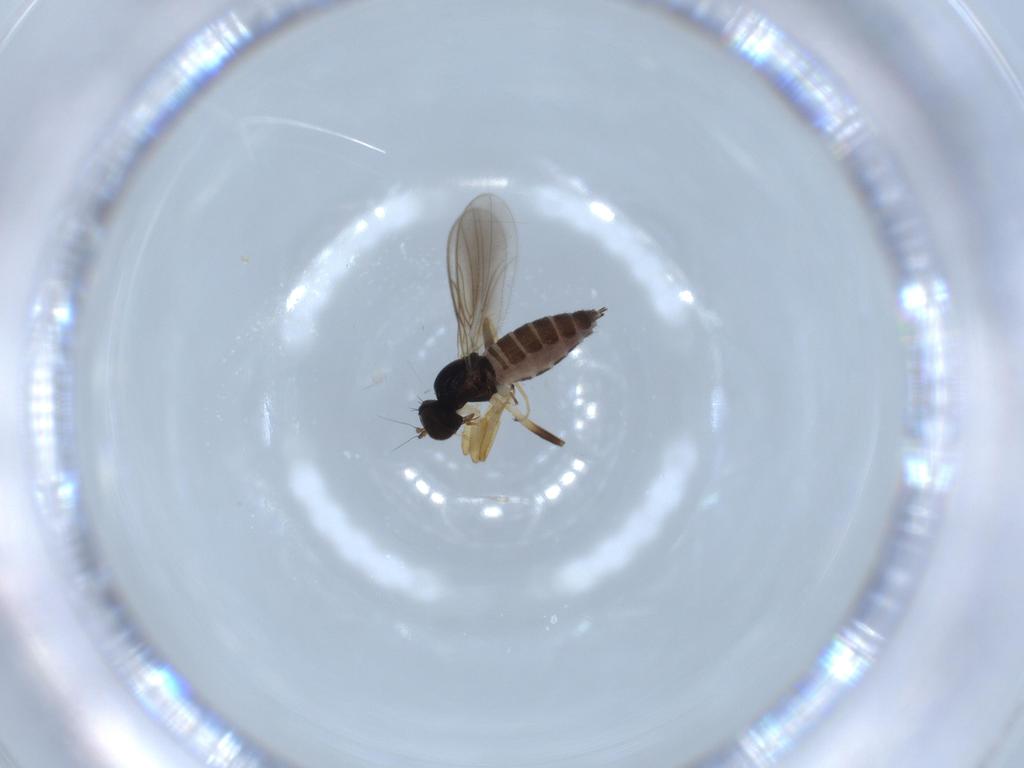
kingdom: Animalia
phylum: Arthropoda
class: Insecta
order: Diptera
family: Hybotidae
